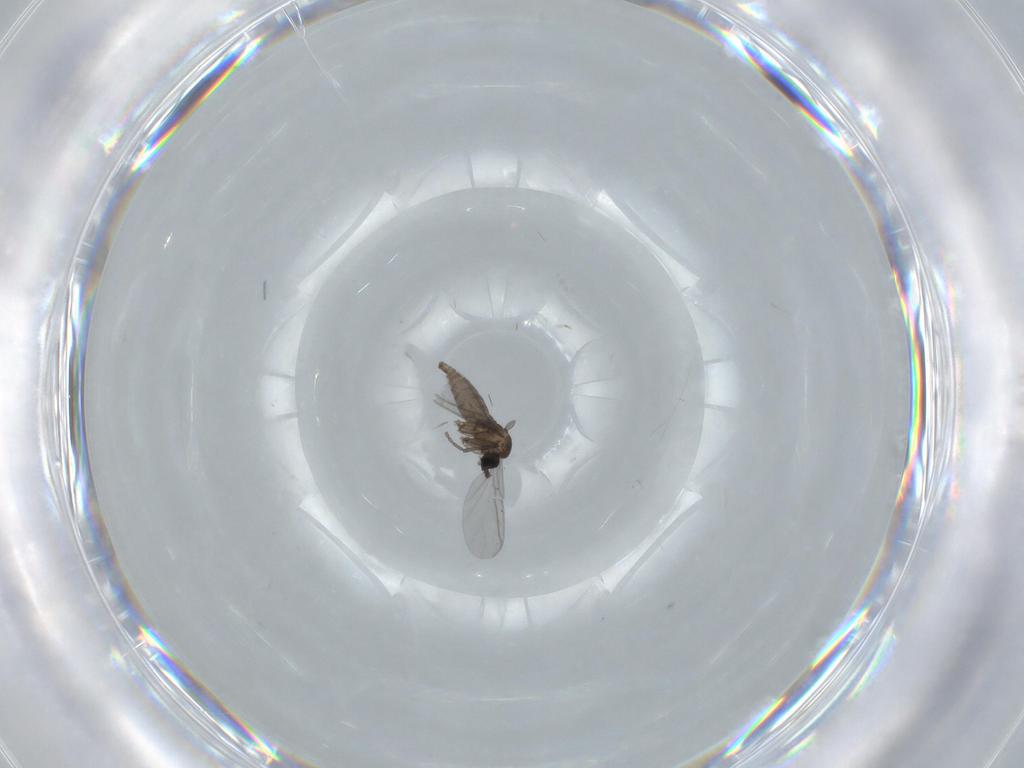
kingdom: Animalia
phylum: Arthropoda
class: Insecta
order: Diptera
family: Sciaridae
